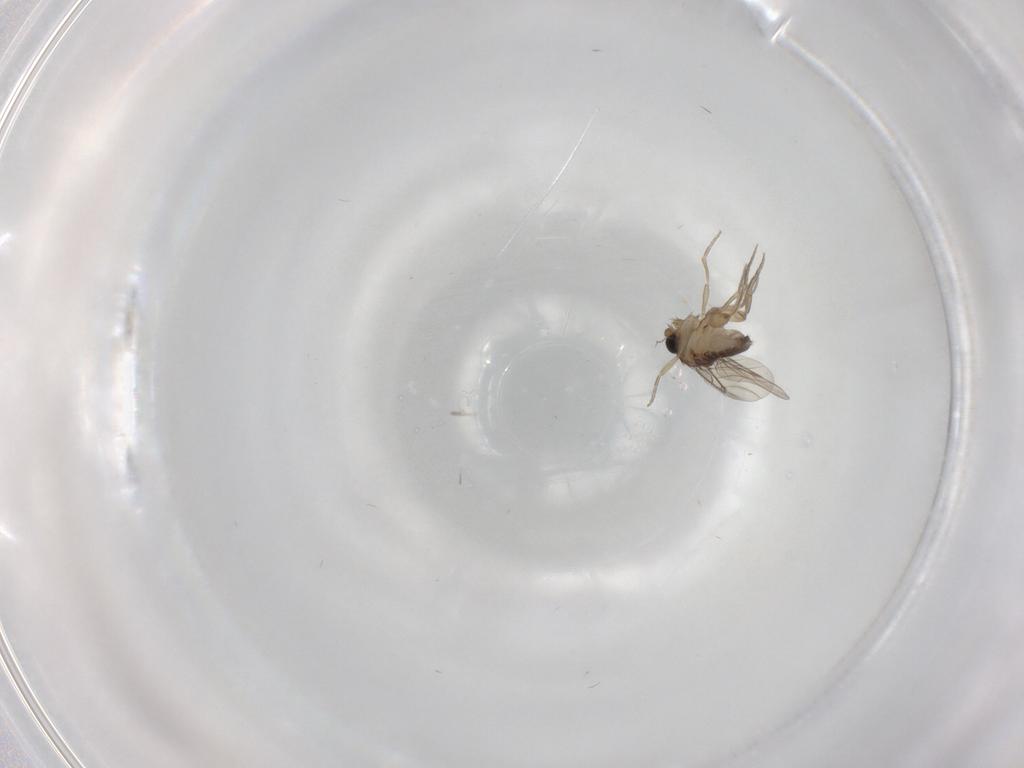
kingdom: Animalia
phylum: Arthropoda
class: Insecta
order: Diptera
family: Phoridae
